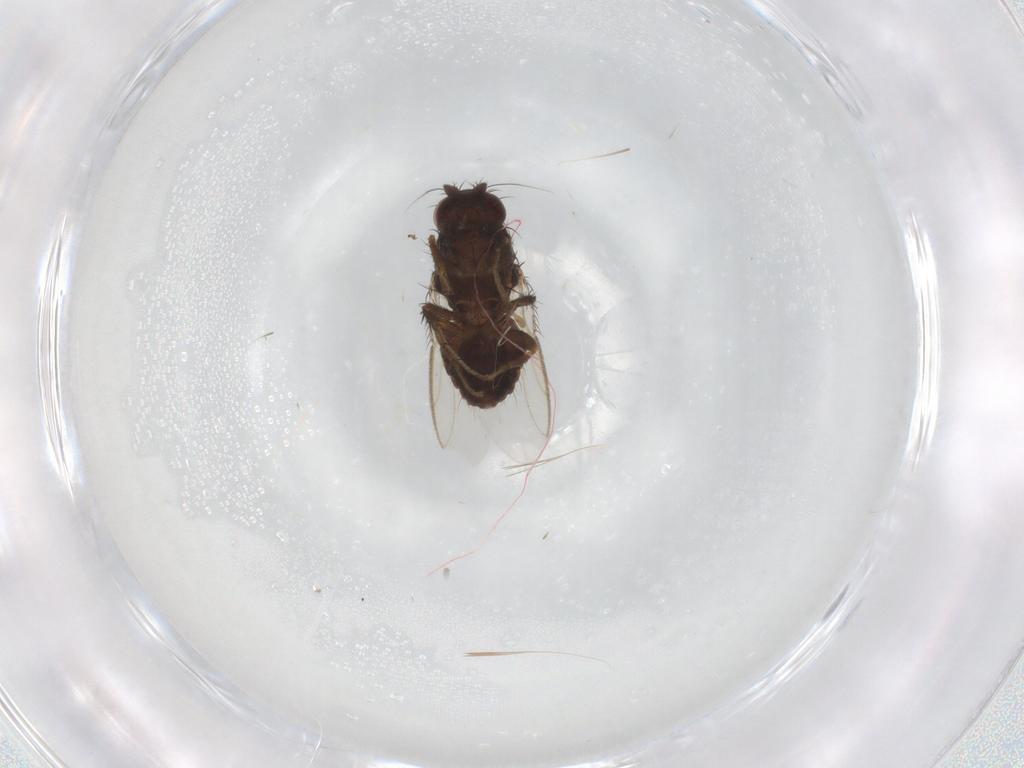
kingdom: Animalia
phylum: Arthropoda
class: Insecta
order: Diptera
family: Sphaeroceridae
